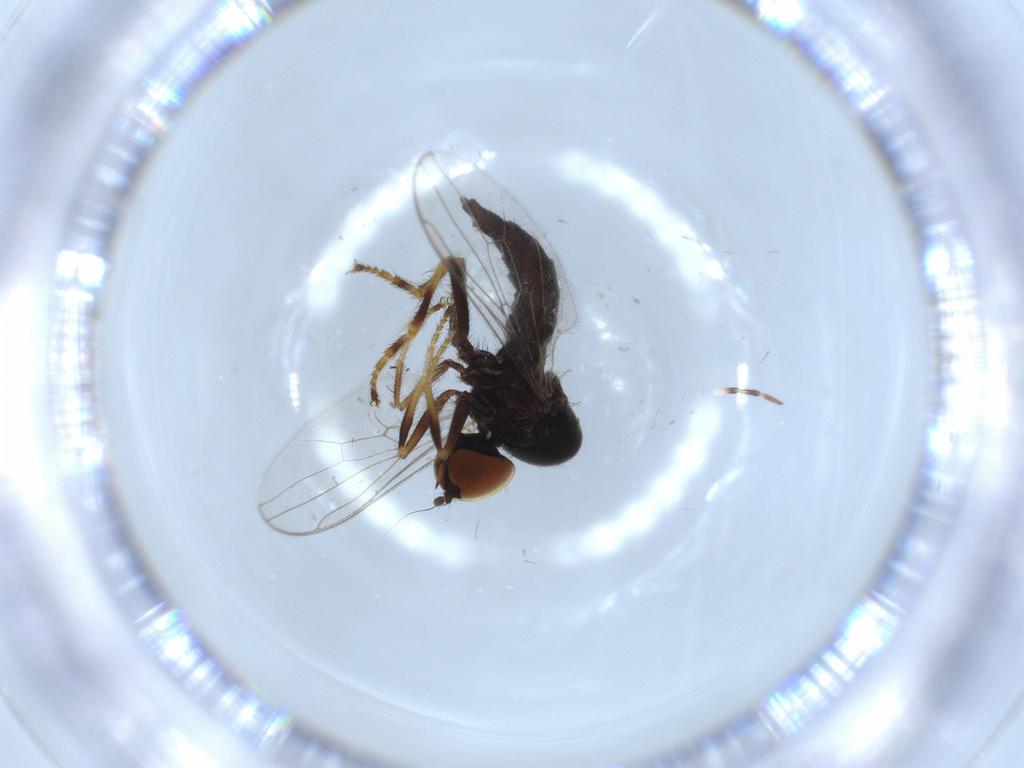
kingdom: Animalia
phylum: Arthropoda
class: Insecta
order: Diptera
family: Hybotidae
